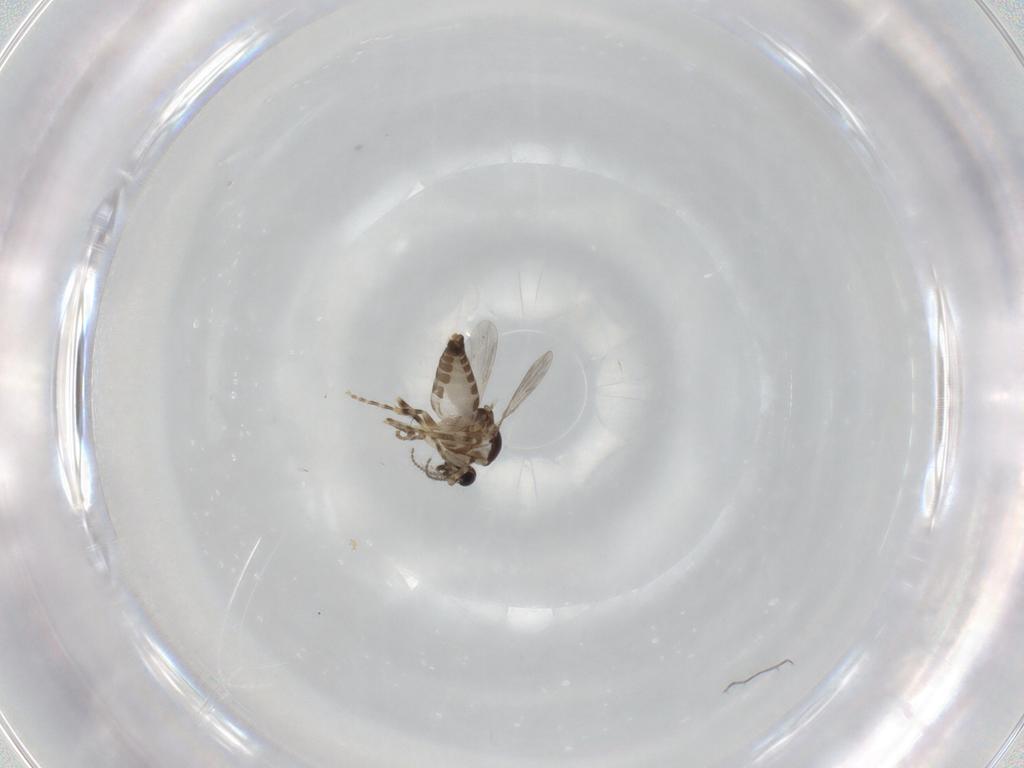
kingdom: Animalia
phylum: Arthropoda
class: Insecta
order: Diptera
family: Ceratopogonidae
